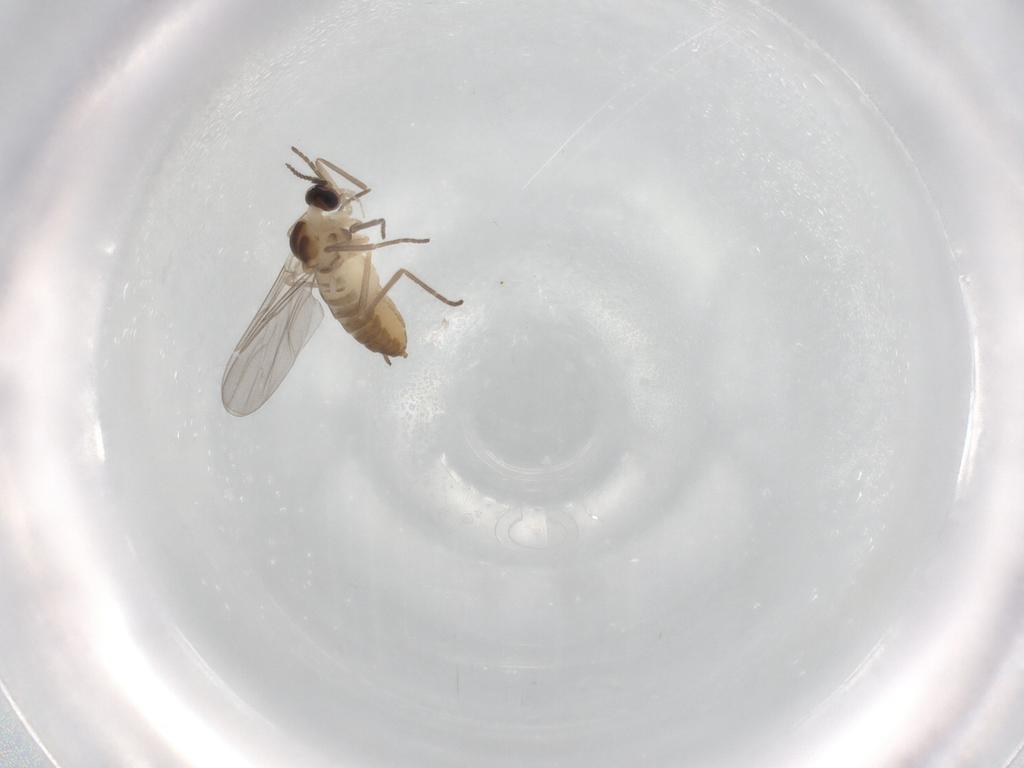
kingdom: Animalia
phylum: Arthropoda
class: Insecta
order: Diptera
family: Cecidomyiidae
